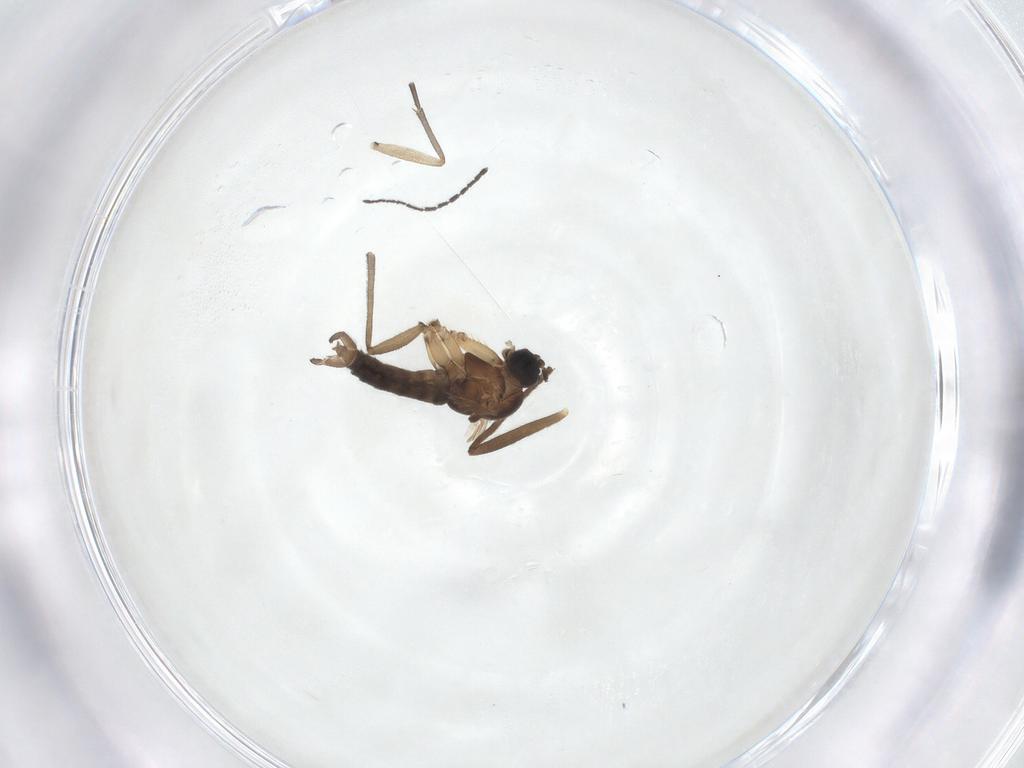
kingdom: Animalia
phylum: Arthropoda
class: Insecta
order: Diptera
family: Sciaridae
